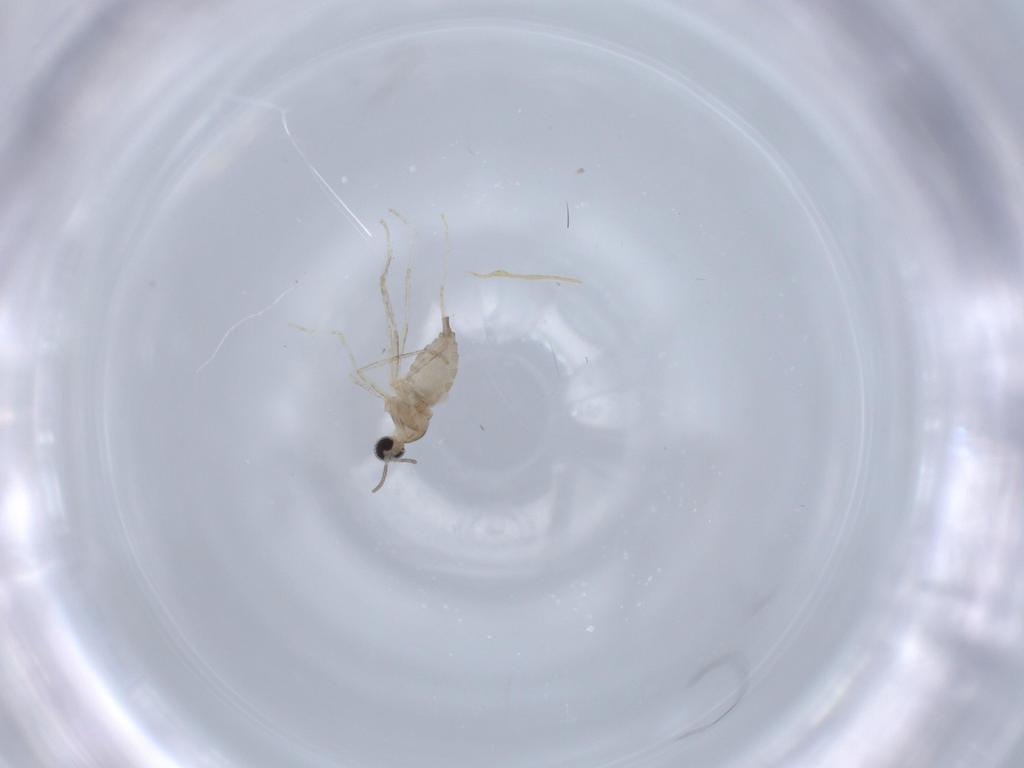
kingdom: Animalia
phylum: Arthropoda
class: Insecta
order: Diptera
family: Cecidomyiidae
